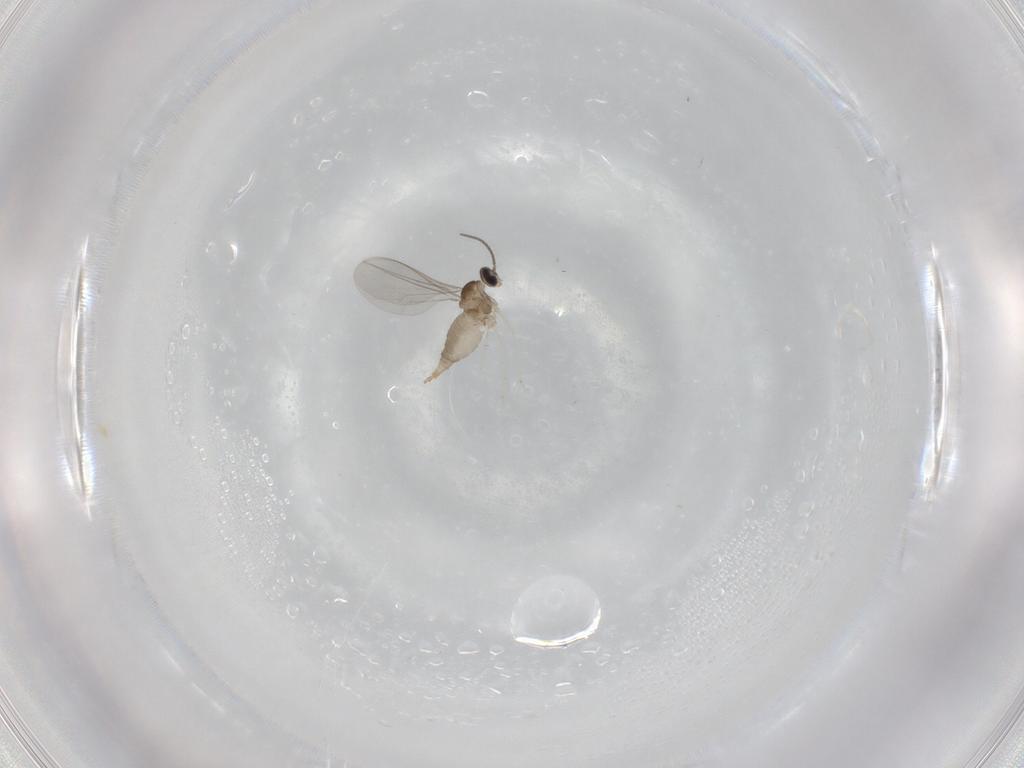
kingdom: Animalia
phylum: Arthropoda
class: Insecta
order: Diptera
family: Cecidomyiidae
